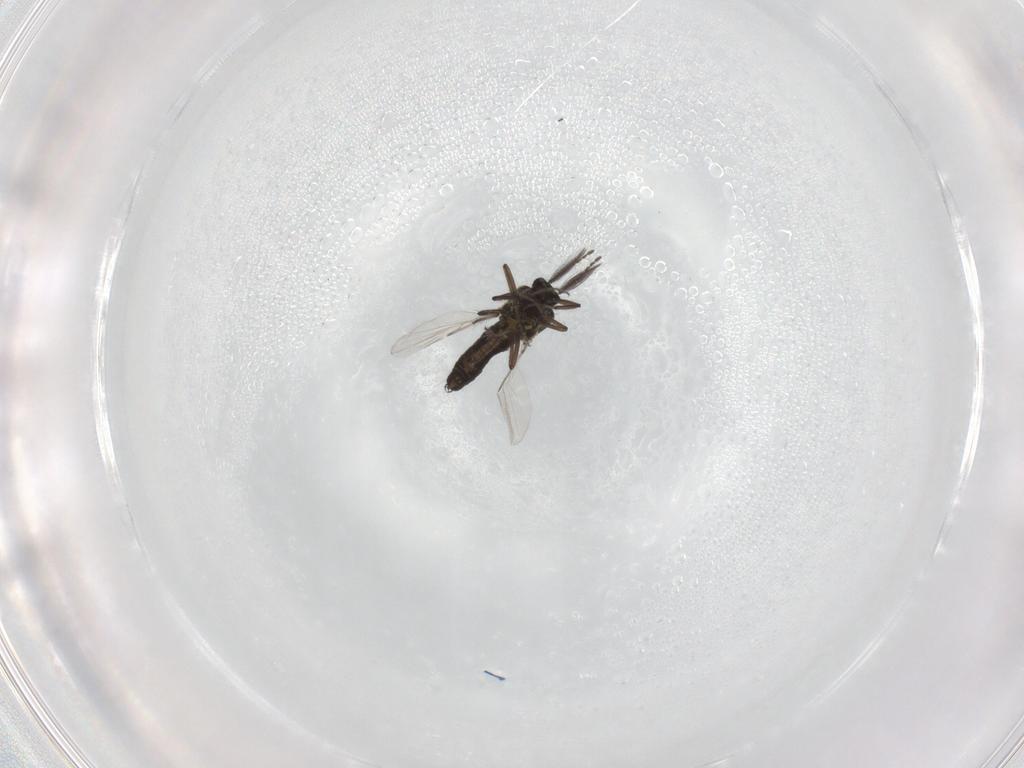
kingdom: Animalia
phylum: Arthropoda
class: Insecta
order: Diptera
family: Ceratopogonidae
